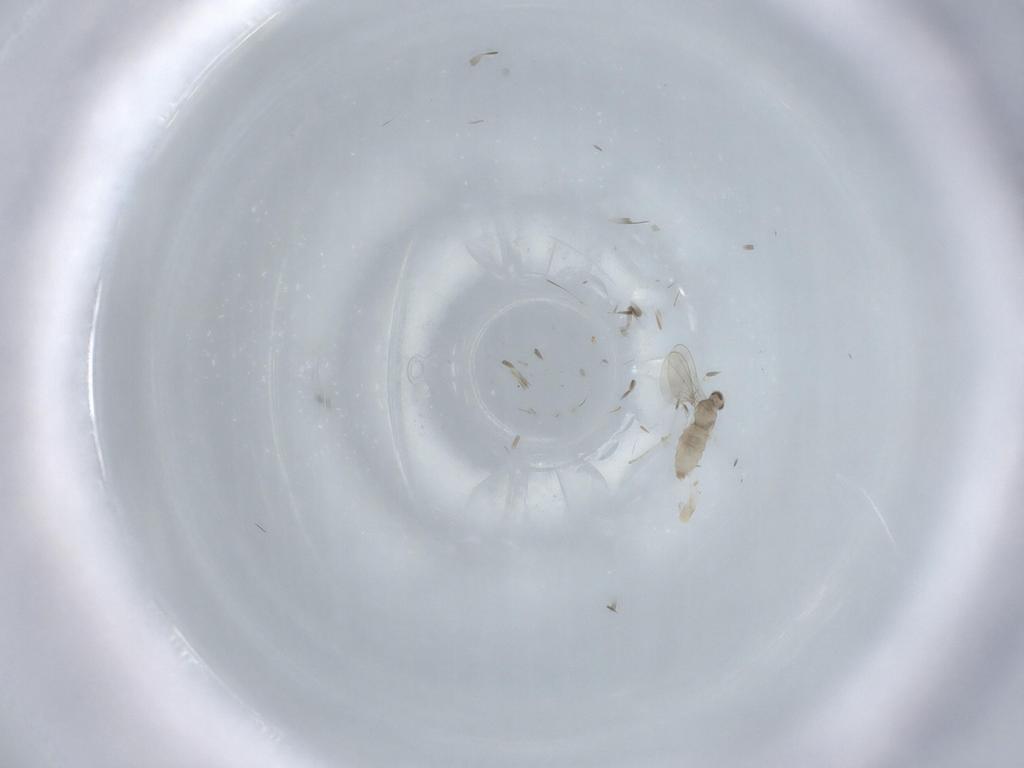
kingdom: Animalia
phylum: Arthropoda
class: Insecta
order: Diptera
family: Cecidomyiidae
